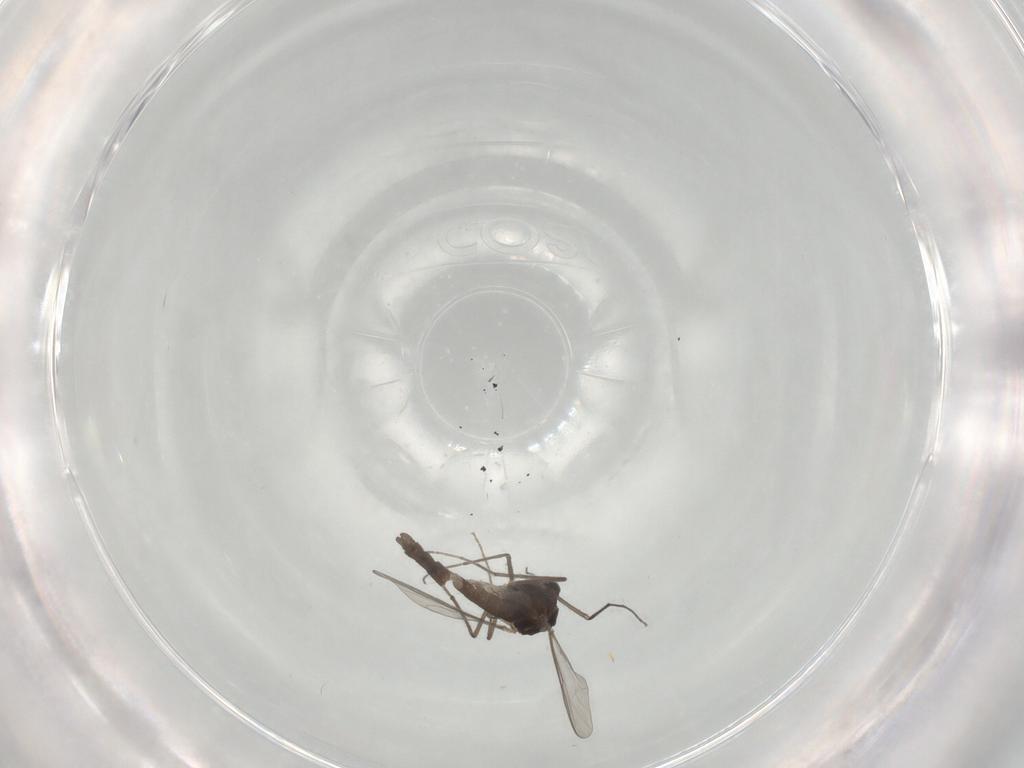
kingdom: Animalia
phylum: Arthropoda
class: Insecta
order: Diptera
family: Chironomidae
